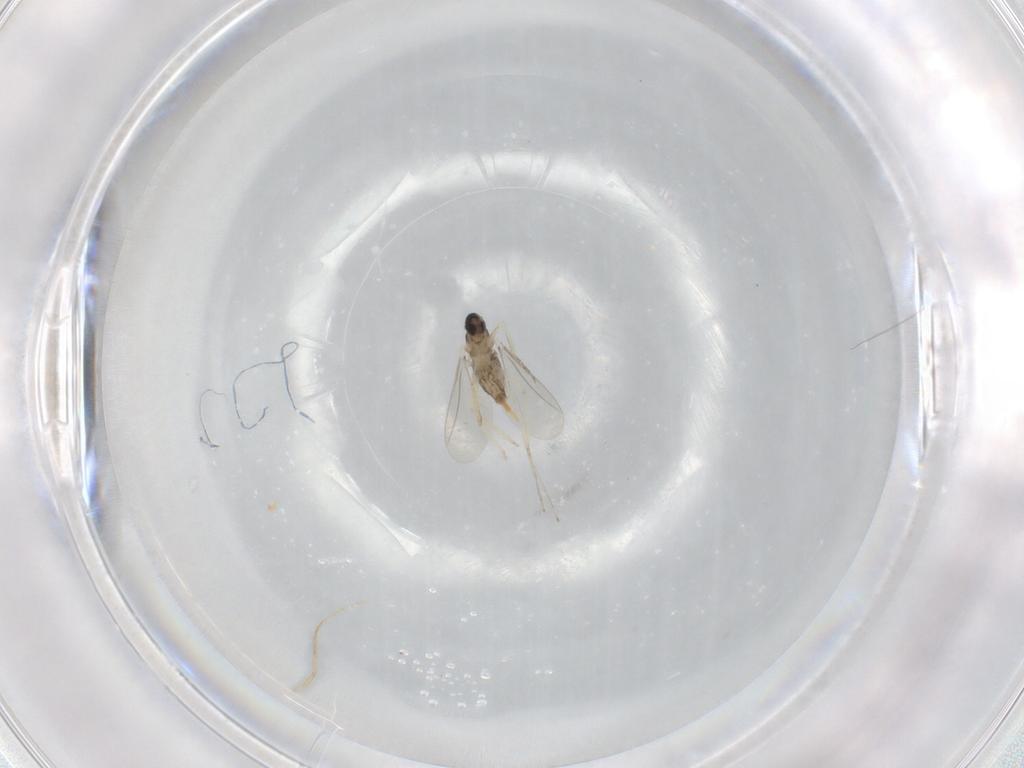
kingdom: Animalia
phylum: Arthropoda
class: Insecta
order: Diptera
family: Cecidomyiidae
